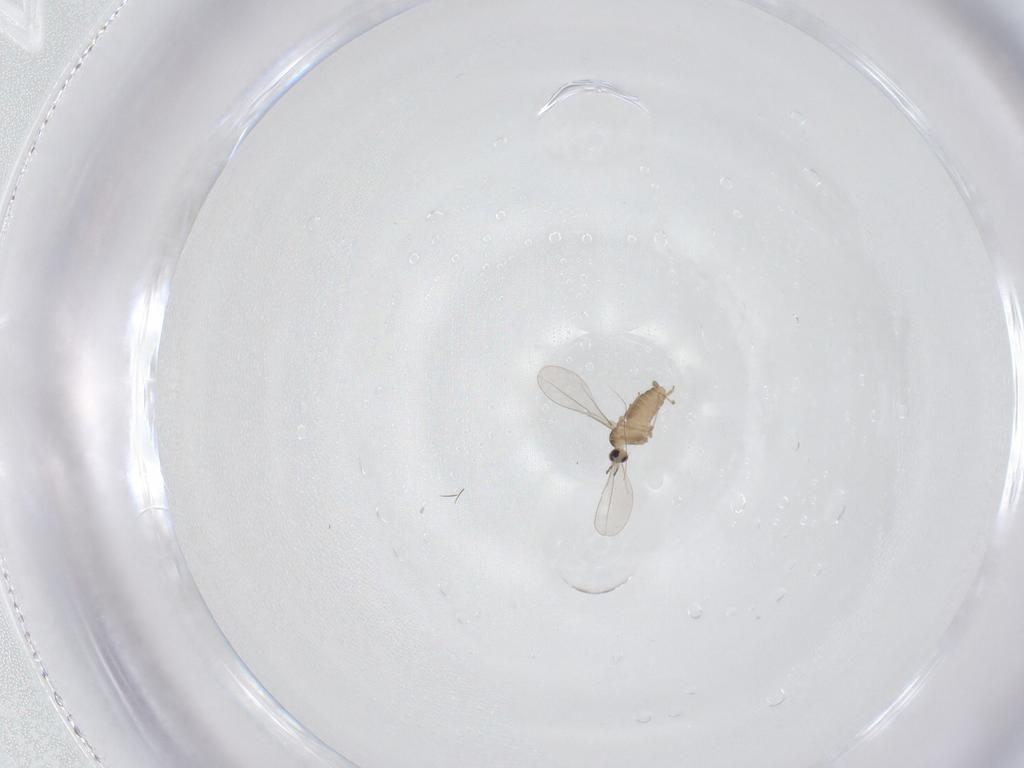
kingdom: Animalia
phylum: Arthropoda
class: Insecta
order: Diptera
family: Cecidomyiidae
